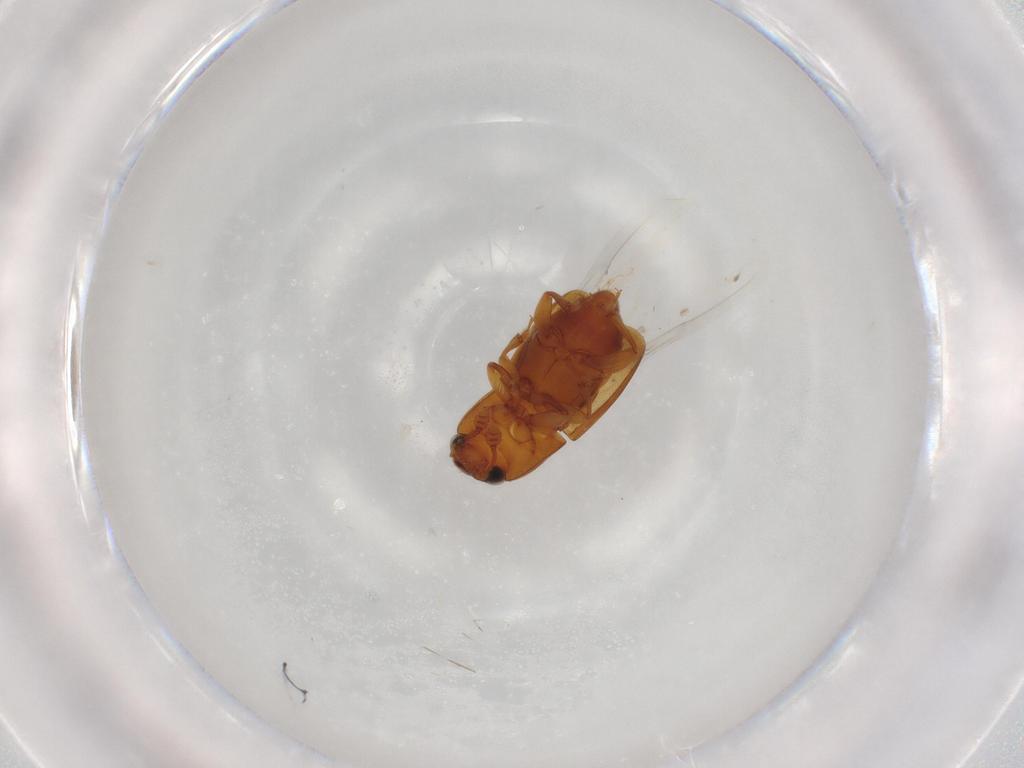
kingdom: Animalia
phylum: Arthropoda
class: Insecta
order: Coleoptera
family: Nitidulidae
